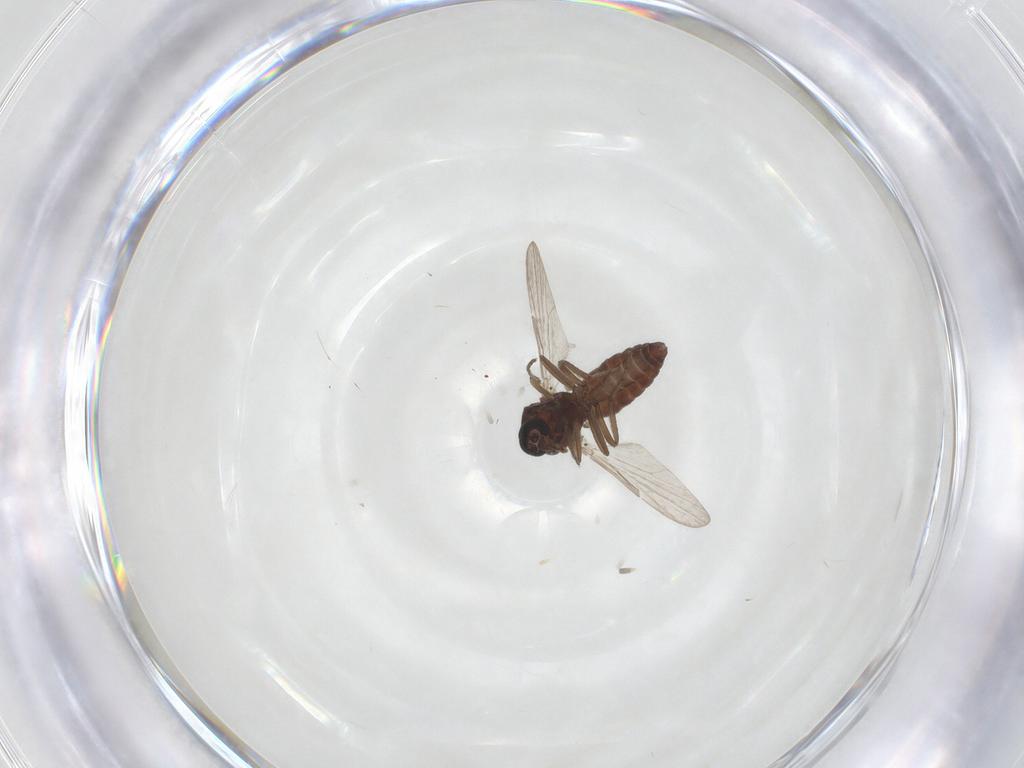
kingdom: Animalia
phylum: Arthropoda
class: Insecta
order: Diptera
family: Ceratopogonidae
